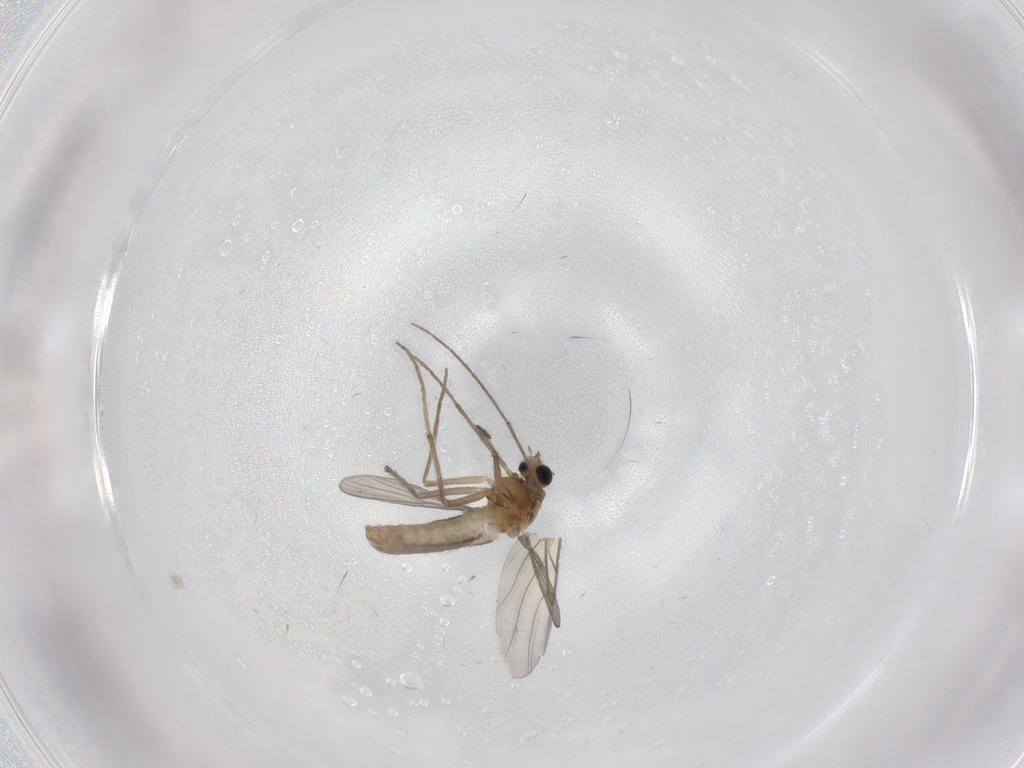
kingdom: Animalia
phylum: Arthropoda
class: Insecta
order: Diptera
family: Chironomidae
